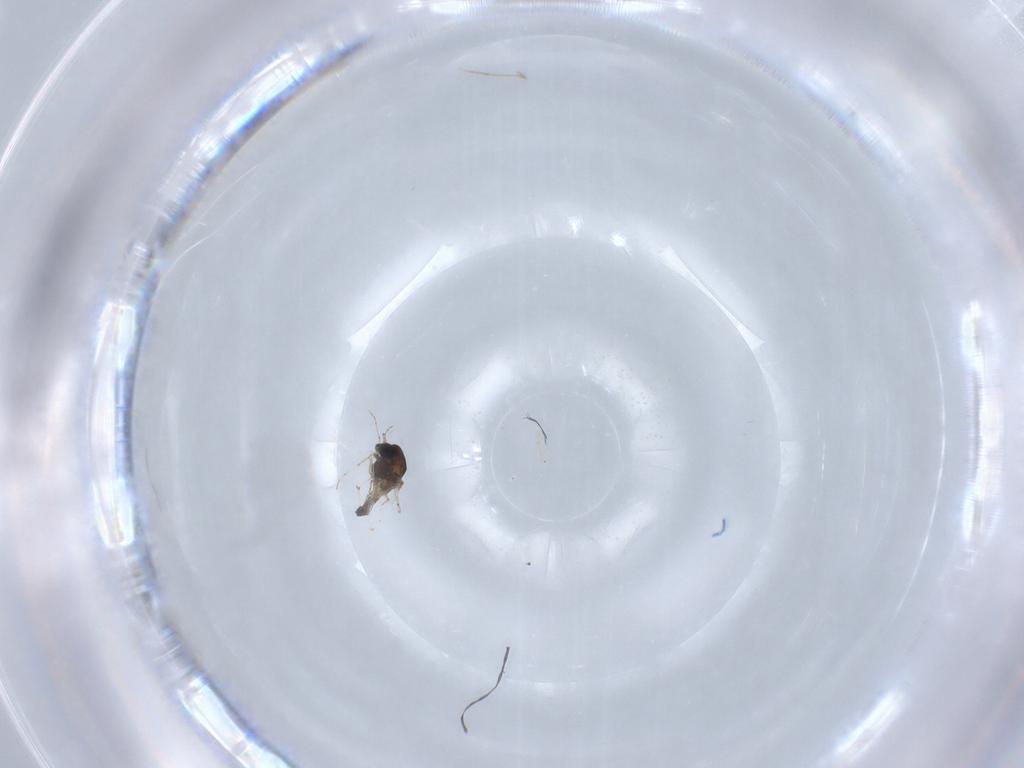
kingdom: Animalia
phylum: Arthropoda
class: Insecta
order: Diptera
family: Chironomidae
